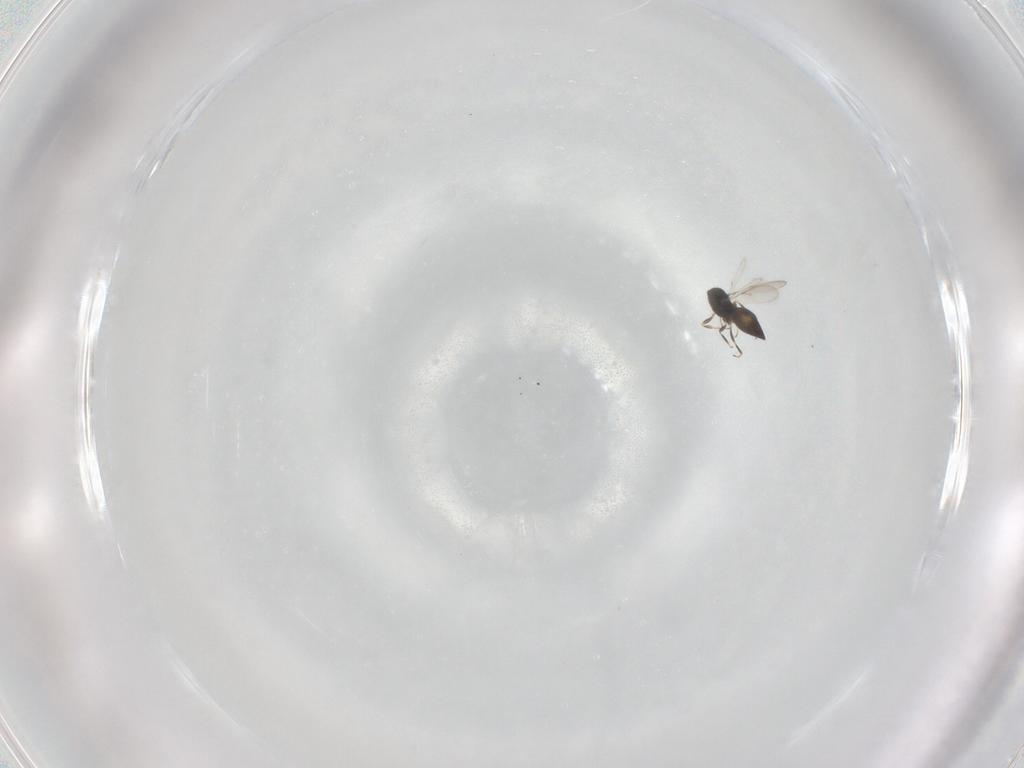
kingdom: Animalia
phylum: Arthropoda
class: Insecta
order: Hymenoptera
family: Scelionidae
